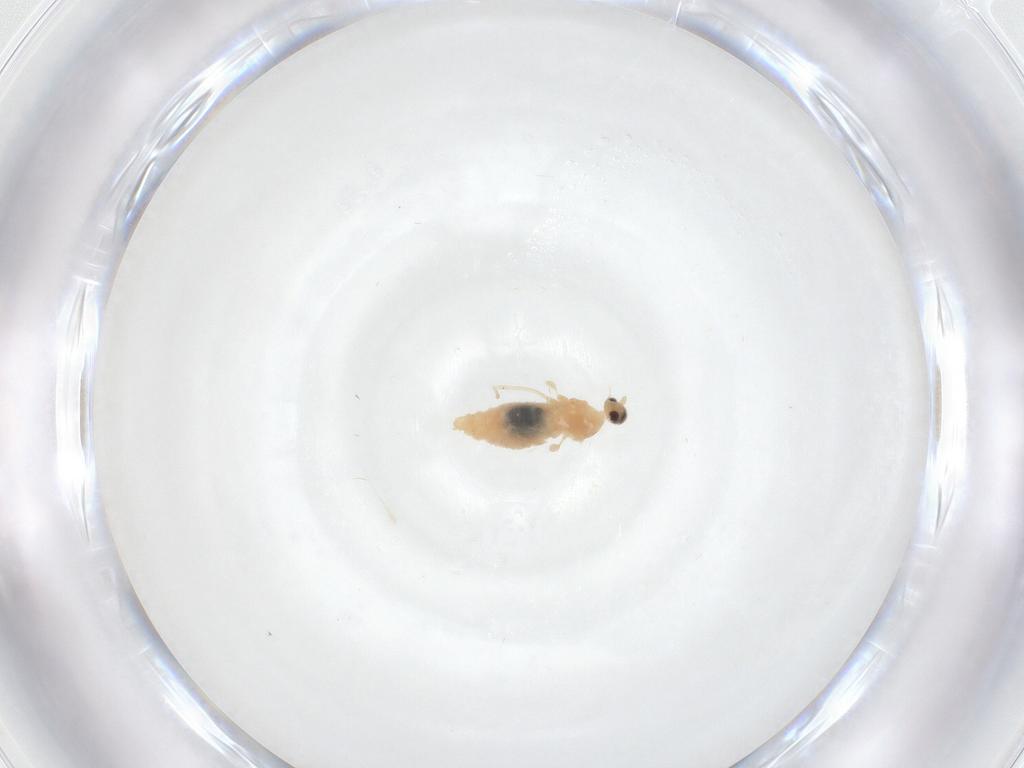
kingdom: Animalia
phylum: Arthropoda
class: Insecta
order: Diptera
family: Cecidomyiidae
